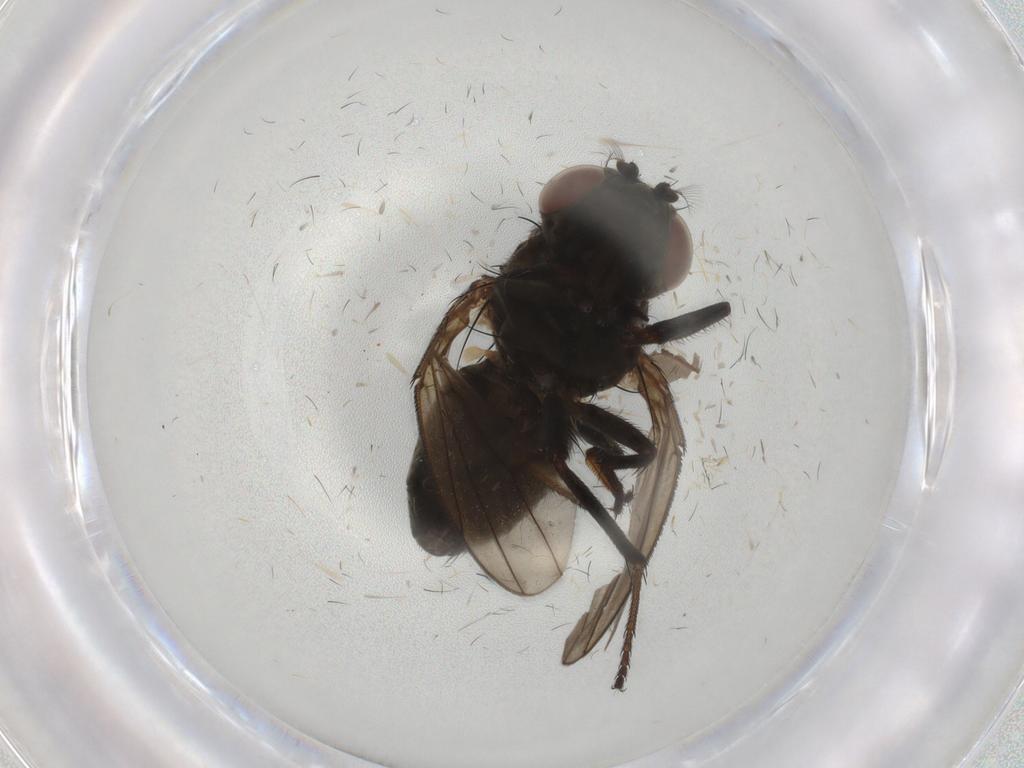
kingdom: Animalia
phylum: Arthropoda
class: Insecta
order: Diptera
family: Ephydridae
